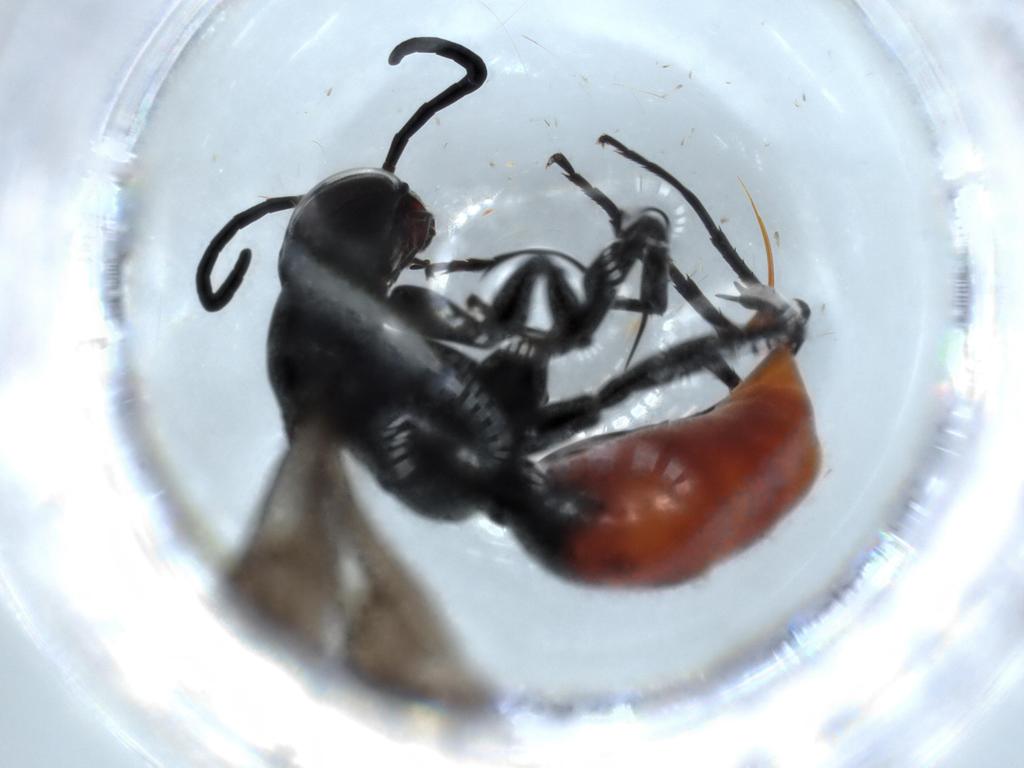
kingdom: Animalia
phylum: Arthropoda
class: Insecta
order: Hymenoptera
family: Pompilidae
